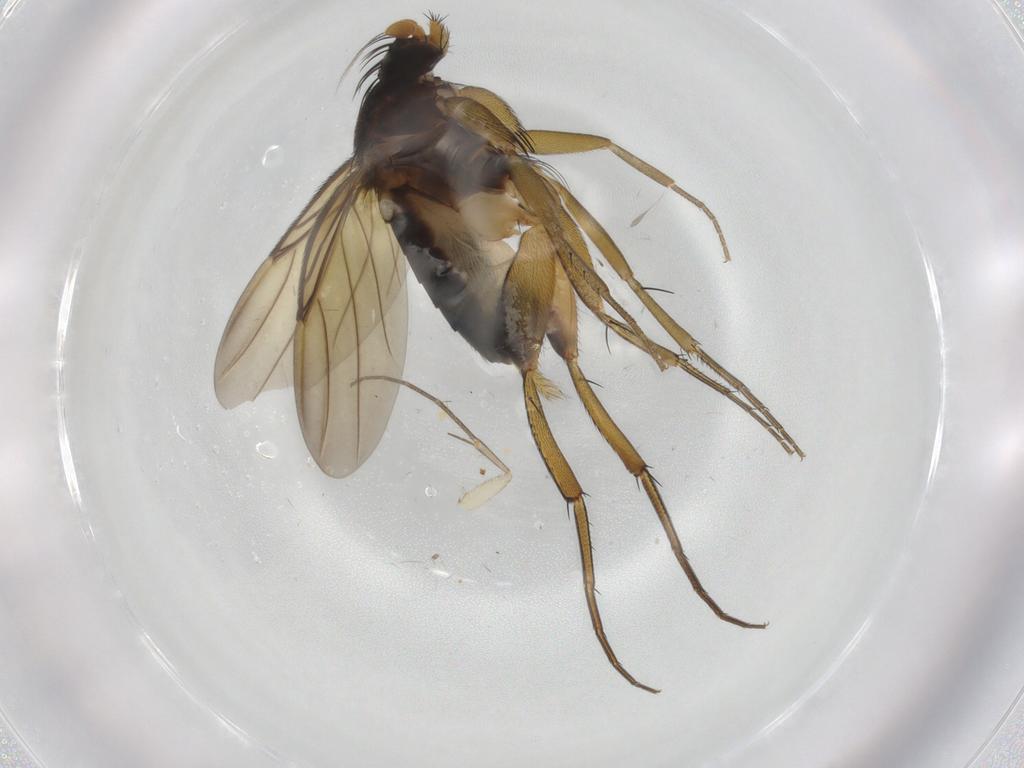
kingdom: Animalia
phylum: Arthropoda
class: Insecta
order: Diptera
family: Phoridae
